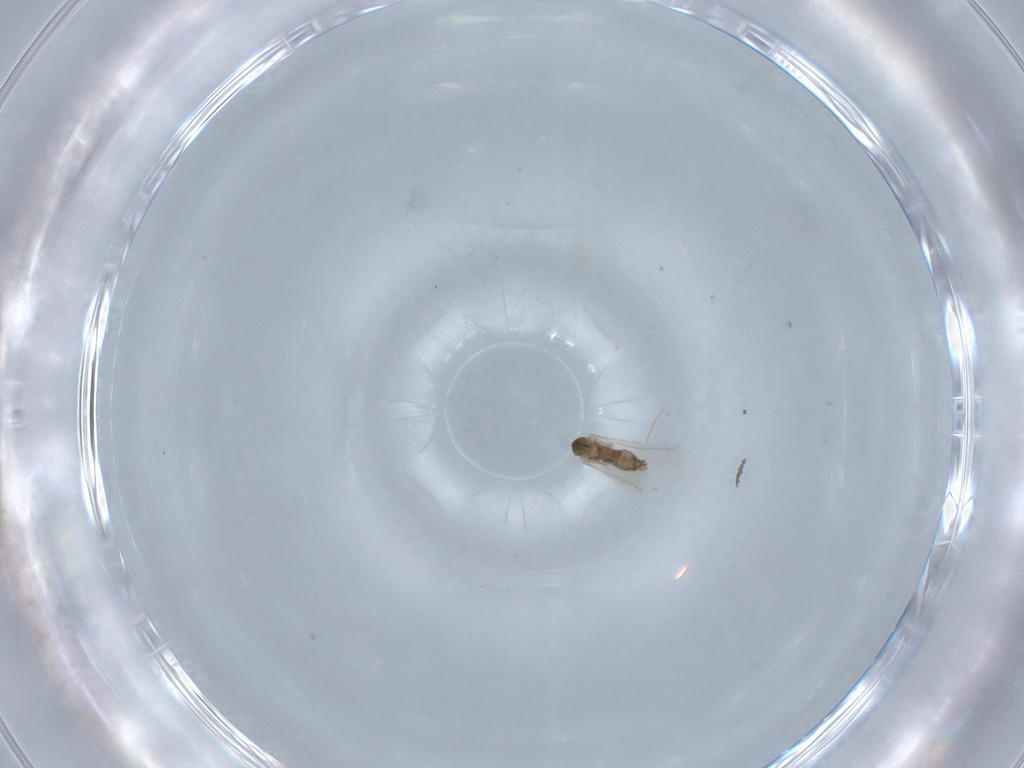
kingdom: Animalia
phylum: Arthropoda
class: Insecta
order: Diptera
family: Cecidomyiidae
